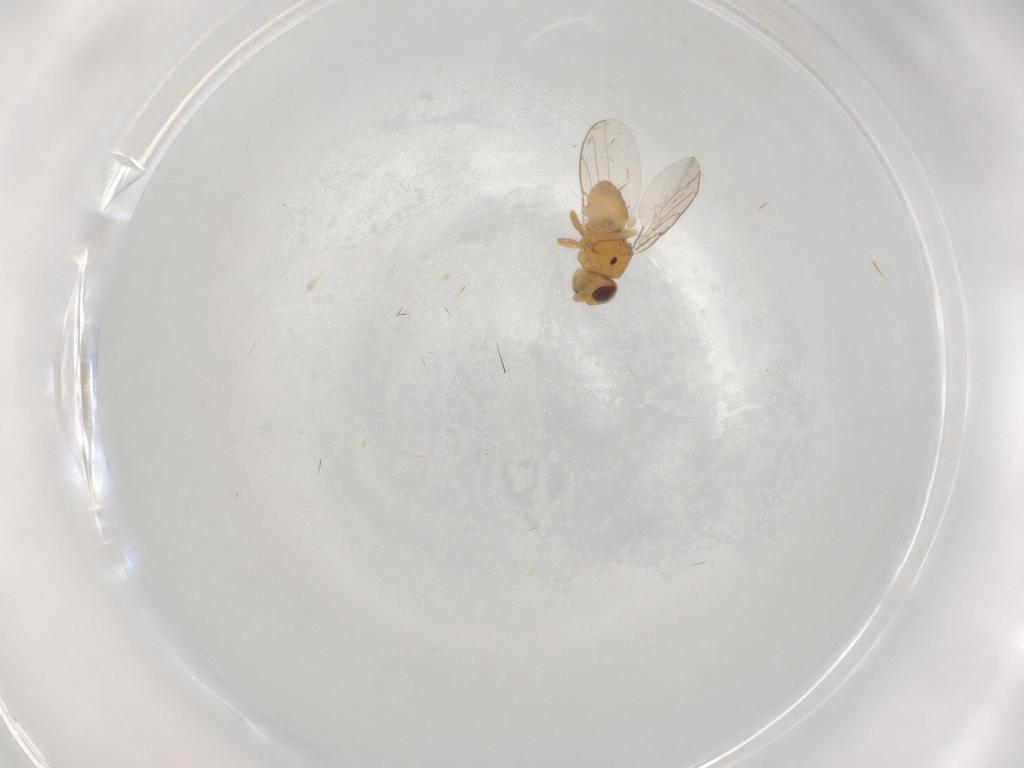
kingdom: Animalia
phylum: Arthropoda
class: Insecta
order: Diptera
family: Chloropidae
